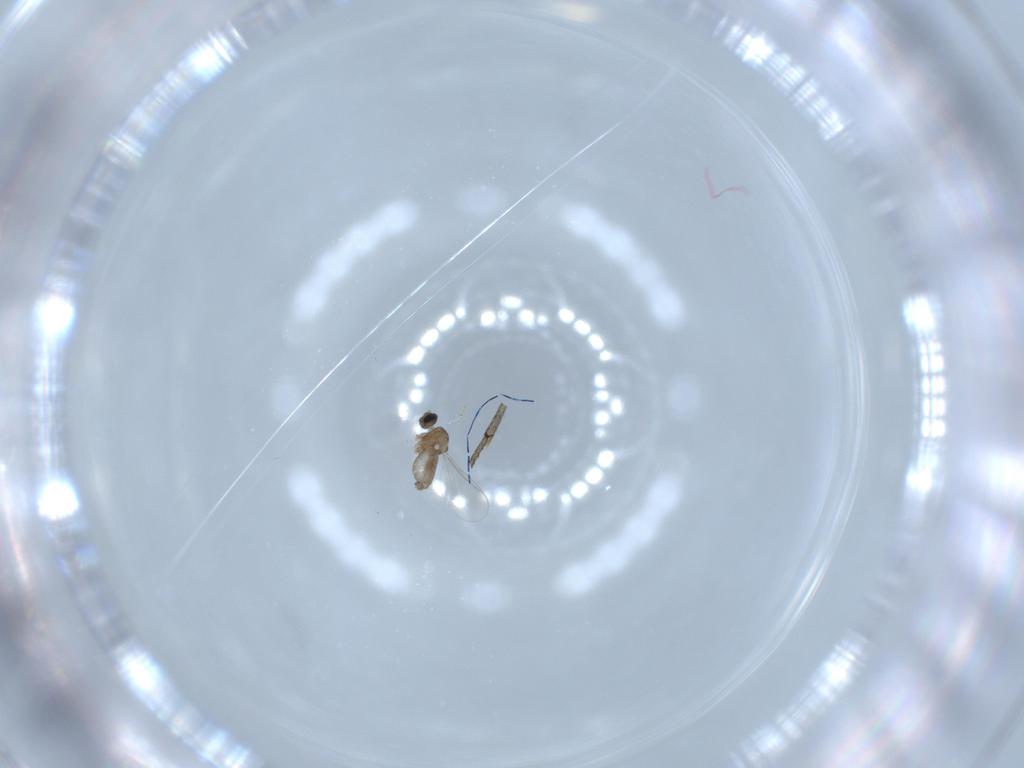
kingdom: Animalia
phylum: Arthropoda
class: Insecta
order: Diptera
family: Cecidomyiidae
